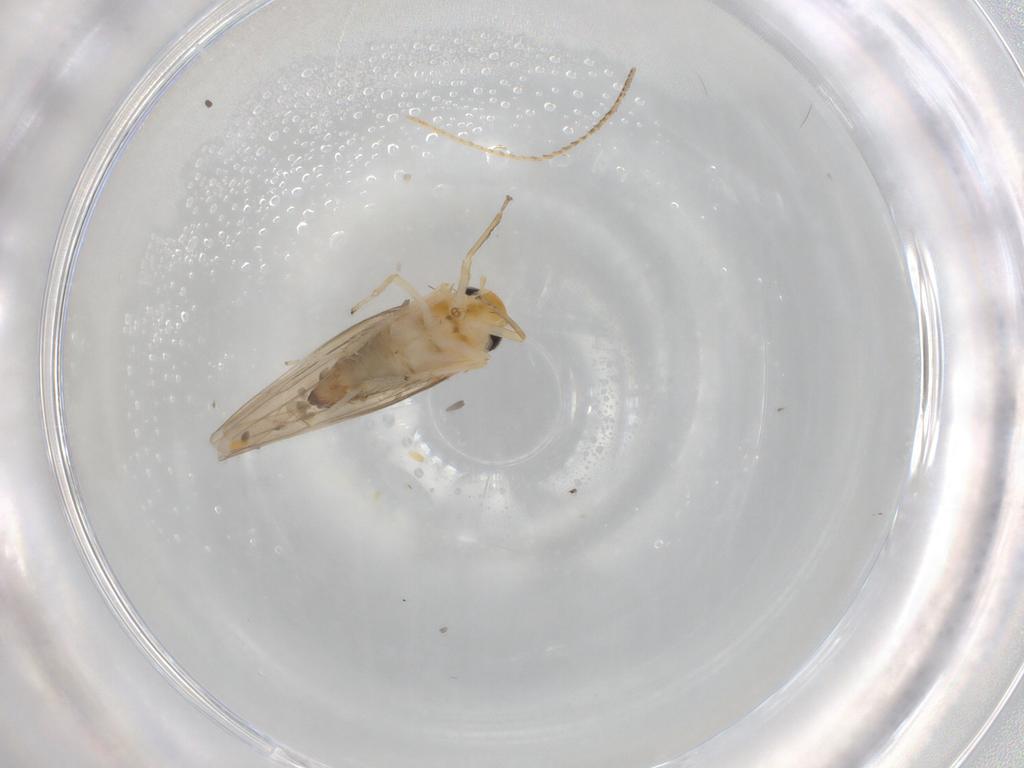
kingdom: Animalia
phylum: Arthropoda
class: Insecta
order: Hemiptera
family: Cicadellidae
